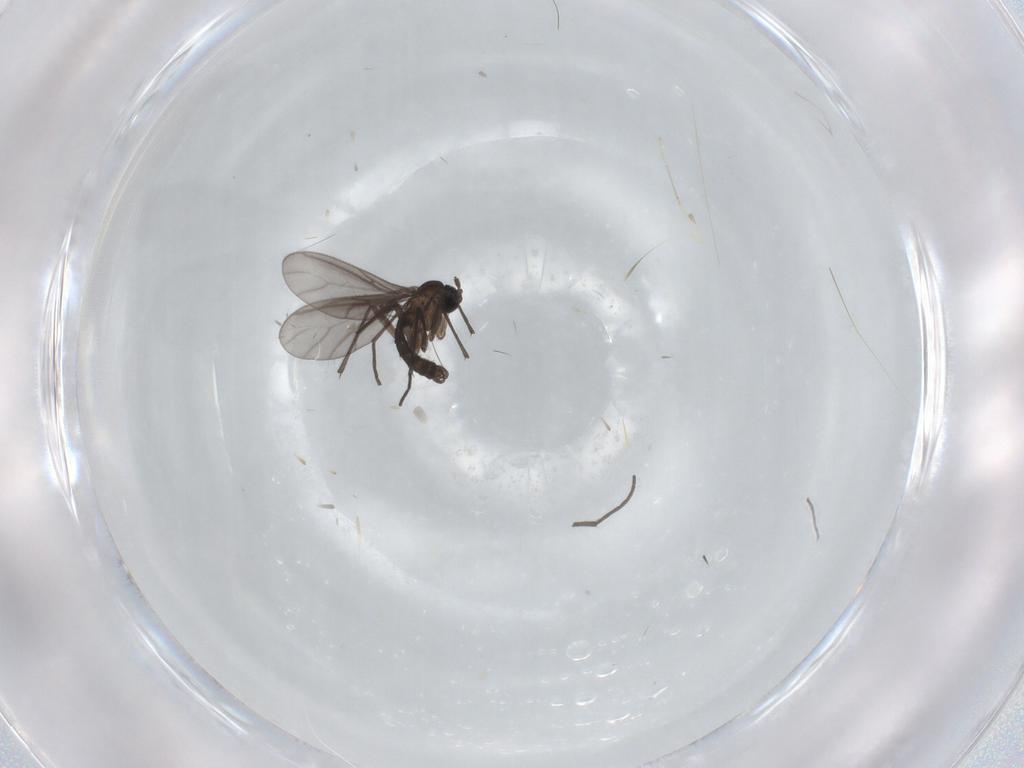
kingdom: Animalia
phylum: Arthropoda
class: Insecta
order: Diptera
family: Sciaridae
